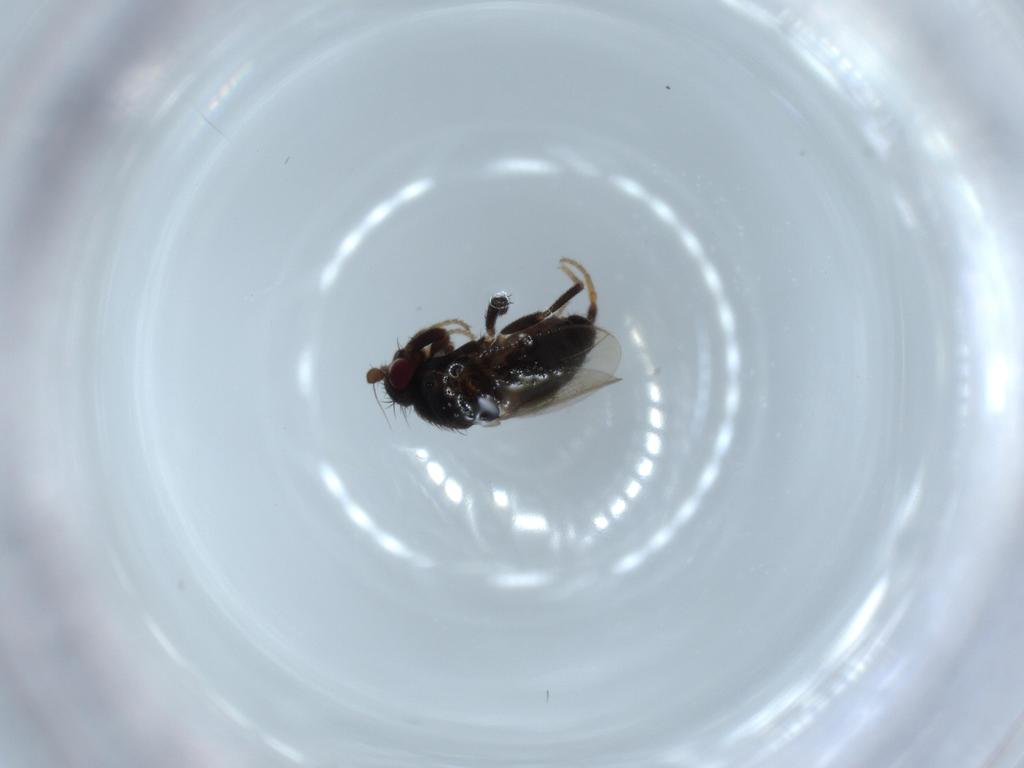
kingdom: Animalia
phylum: Arthropoda
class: Insecta
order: Diptera
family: Sphaeroceridae
